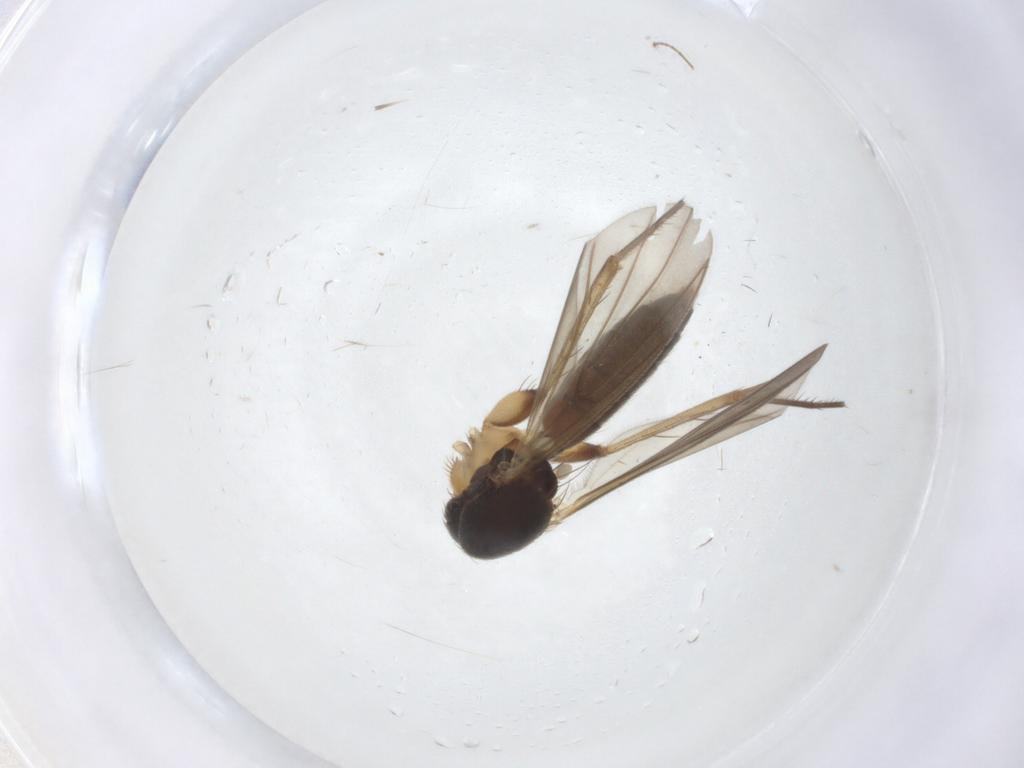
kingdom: Animalia
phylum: Arthropoda
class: Insecta
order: Diptera
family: Mycetophilidae
